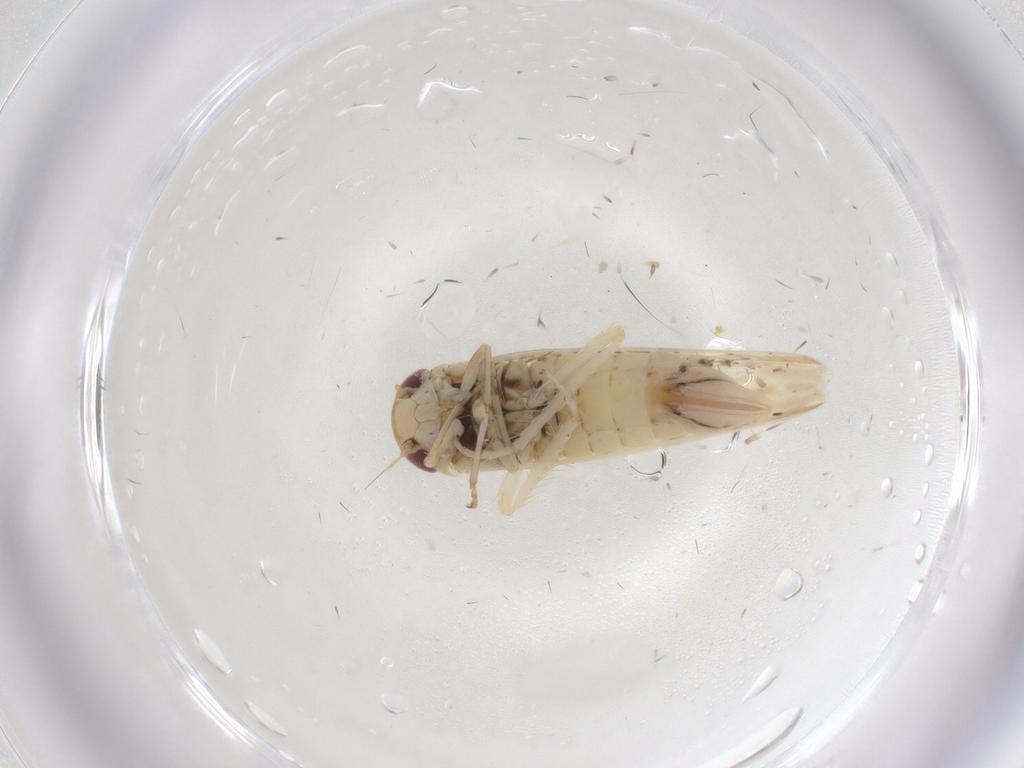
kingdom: Animalia
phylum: Arthropoda
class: Insecta
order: Hemiptera
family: Cicadellidae
